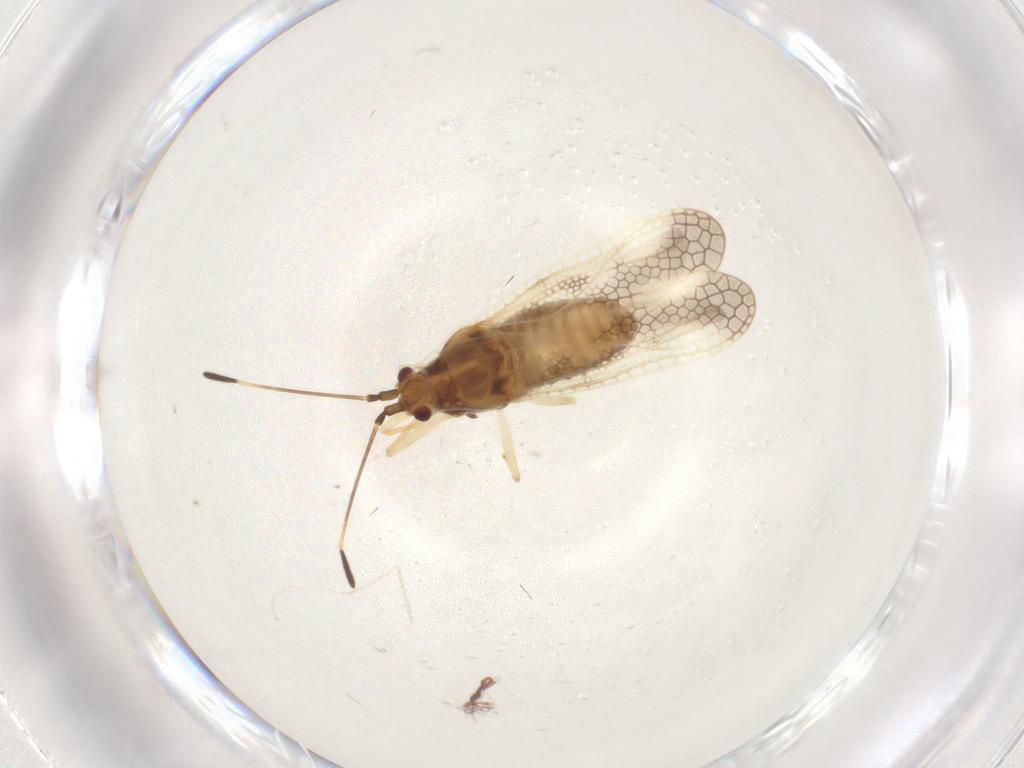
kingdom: Animalia
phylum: Arthropoda
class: Insecta
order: Hemiptera
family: Tingidae
